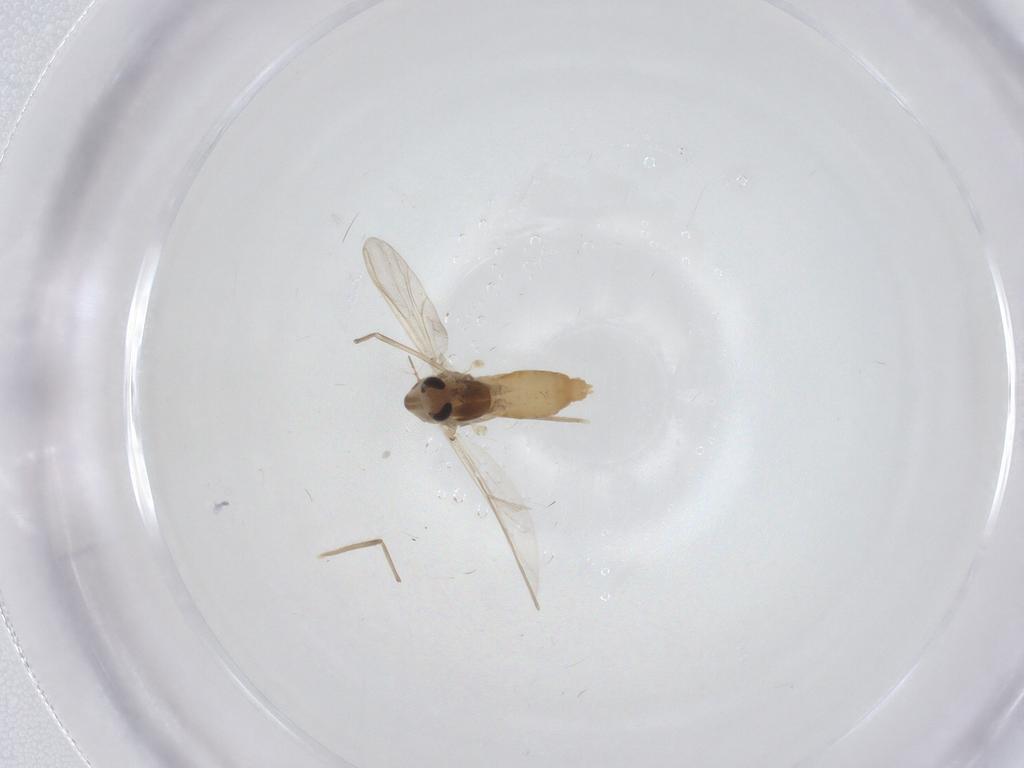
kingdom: Animalia
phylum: Arthropoda
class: Insecta
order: Diptera
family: Chironomidae
